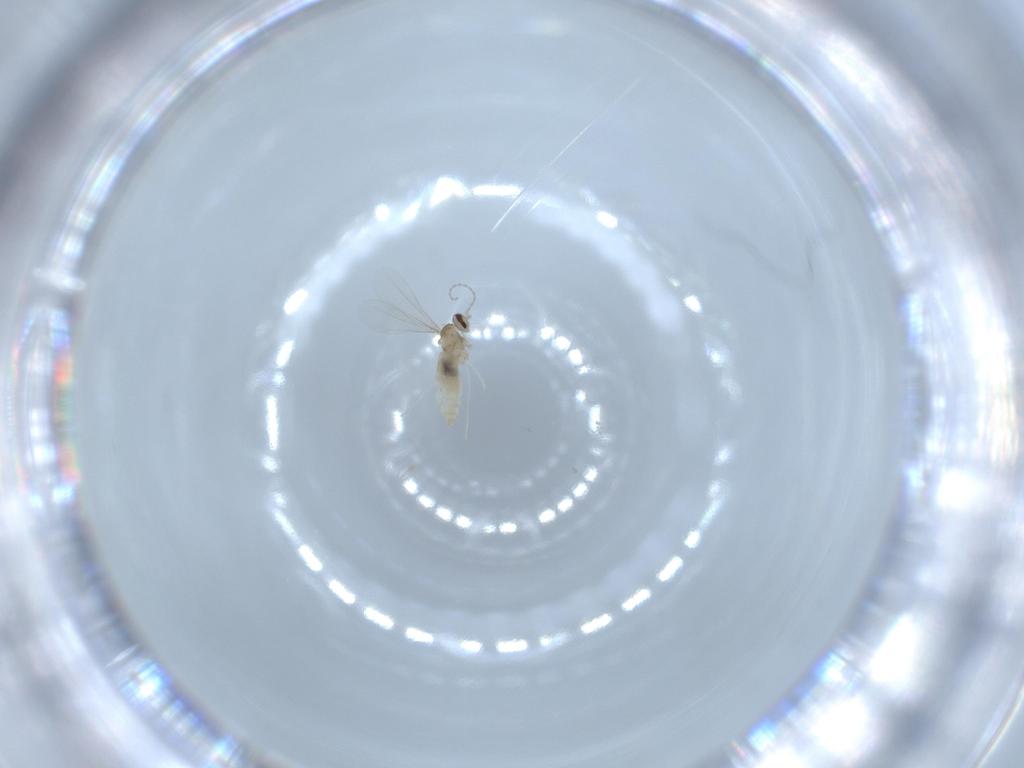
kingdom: Animalia
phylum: Arthropoda
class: Insecta
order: Diptera
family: Cecidomyiidae
